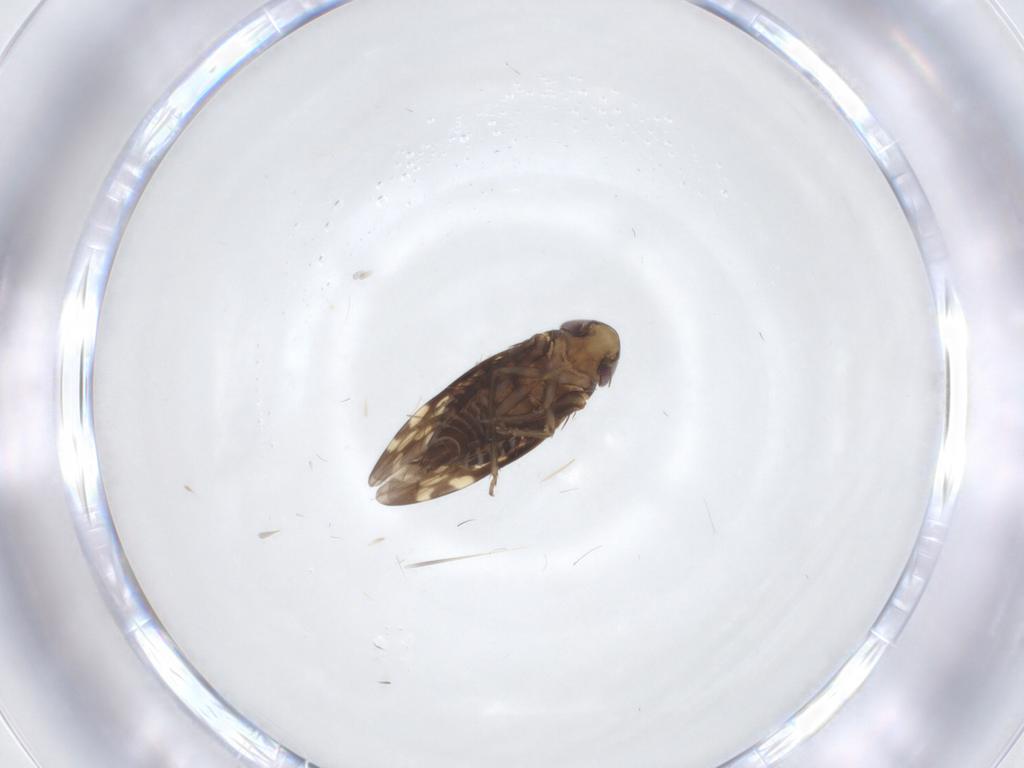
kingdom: Animalia
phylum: Arthropoda
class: Insecta
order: Hemiptera
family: Cicadellidae
